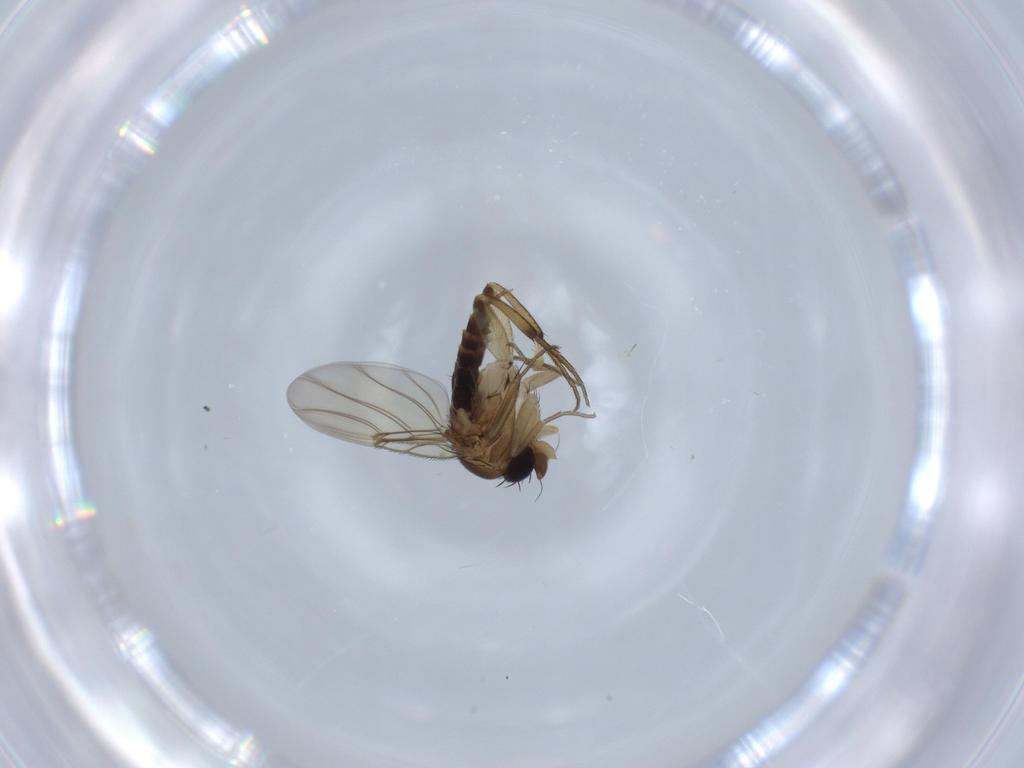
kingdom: Animalia
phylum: Arthropoda
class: Insecta
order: Diptera
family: Phoridae
